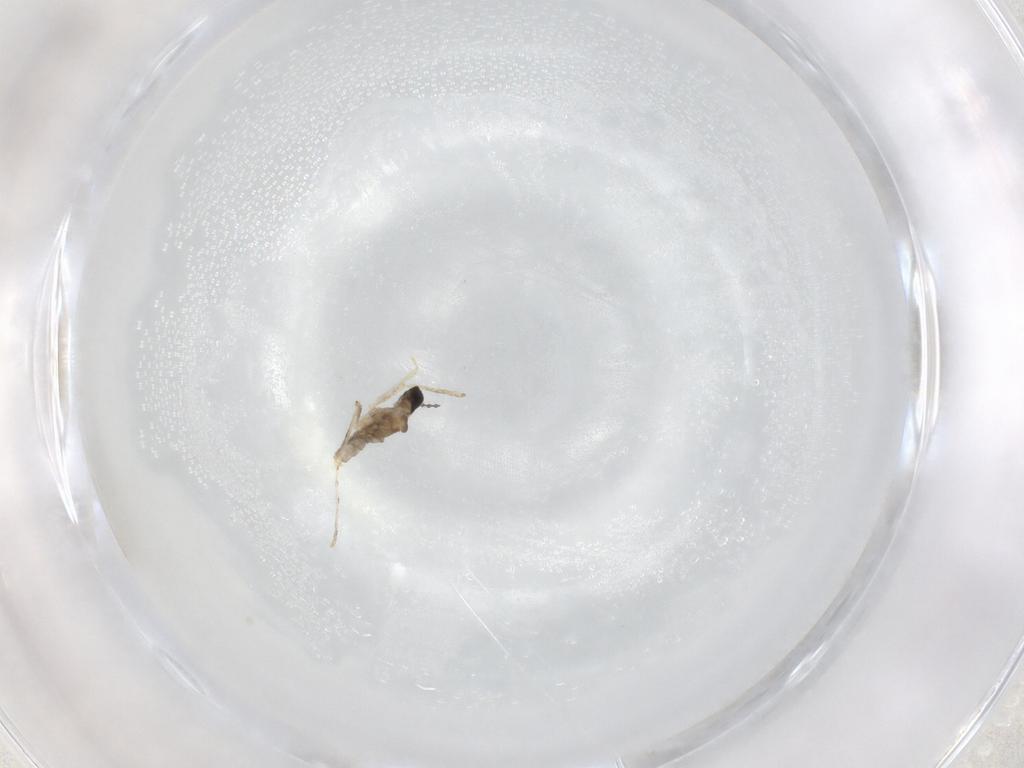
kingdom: Animalia
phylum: Arthropoda
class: Insecta
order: Diptera
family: Cecidomyiidae
